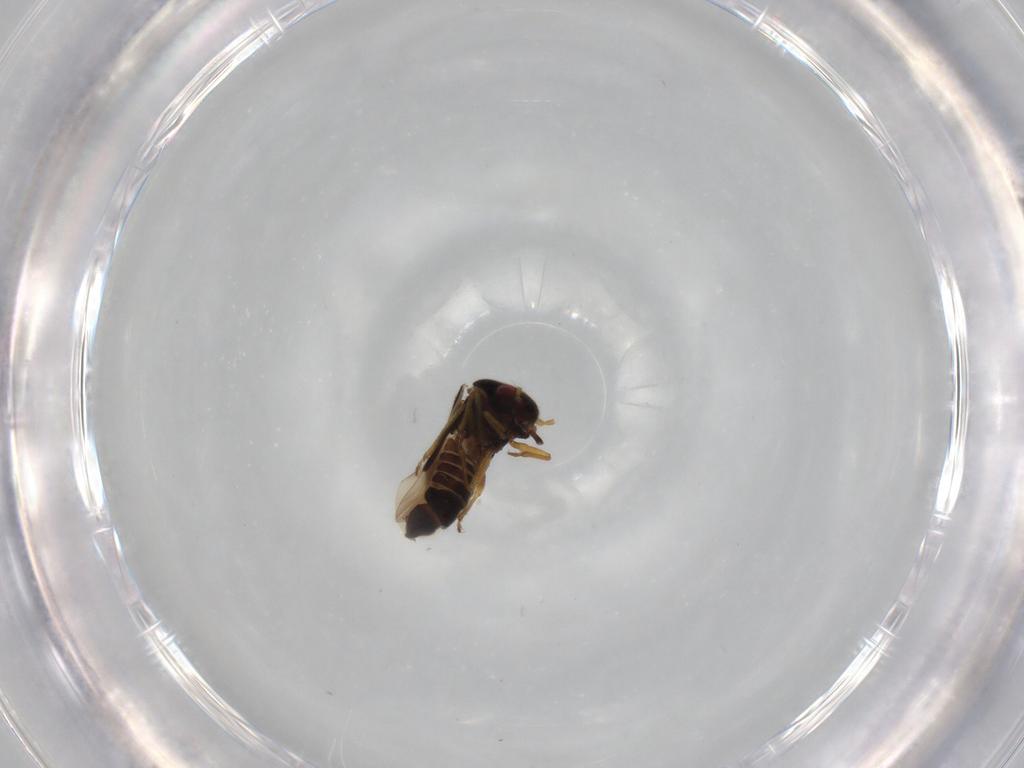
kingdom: Animalia
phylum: Arthropoda
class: Insecta
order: Hemiptera
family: Schizopteridae
